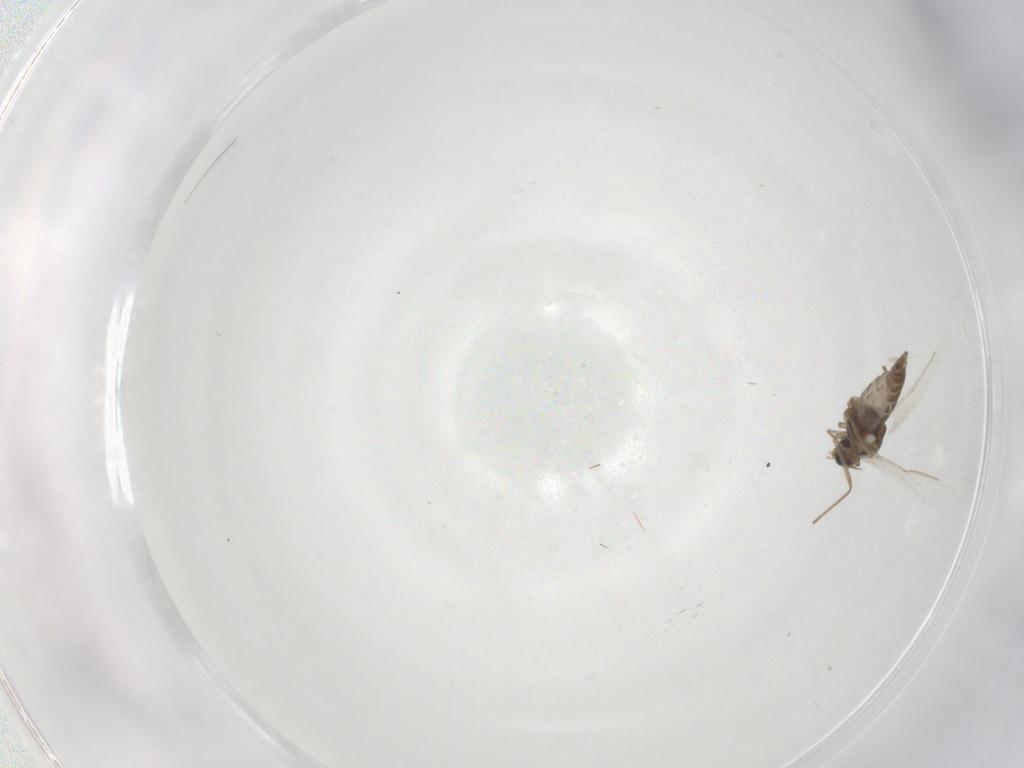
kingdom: Animalia
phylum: Arthropoda
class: Insecta
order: Diptera
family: Cecidomyiidae
